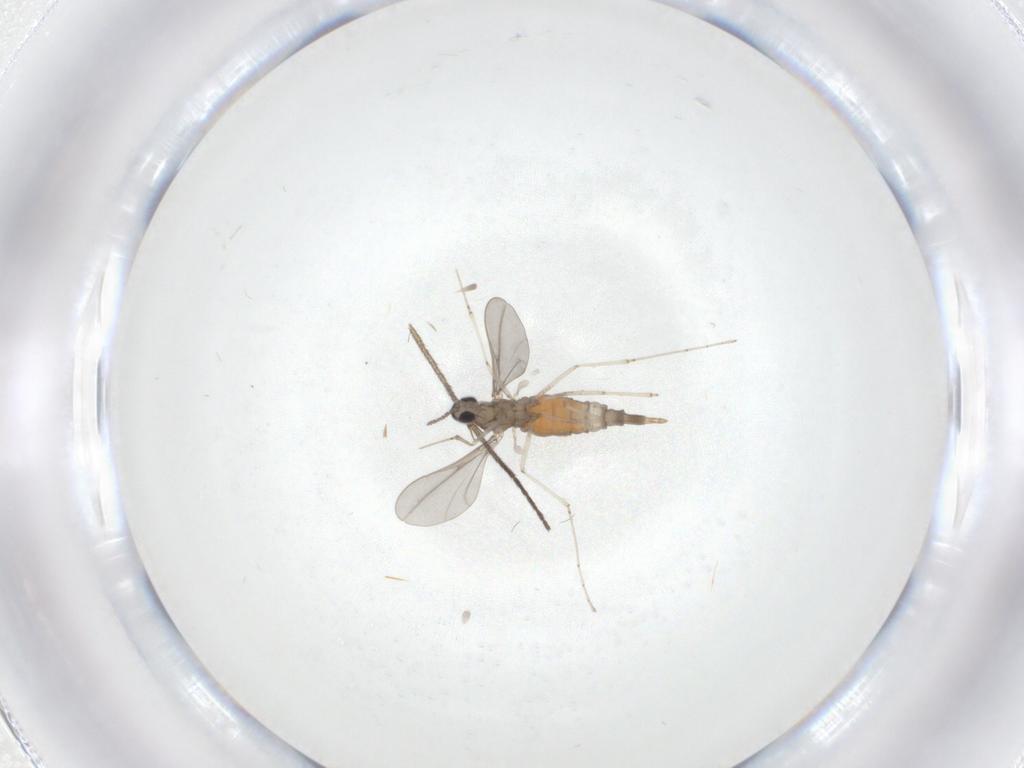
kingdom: Animalia
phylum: Arthropoda
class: Insecta
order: Diptera
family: Cecidomyiidae
